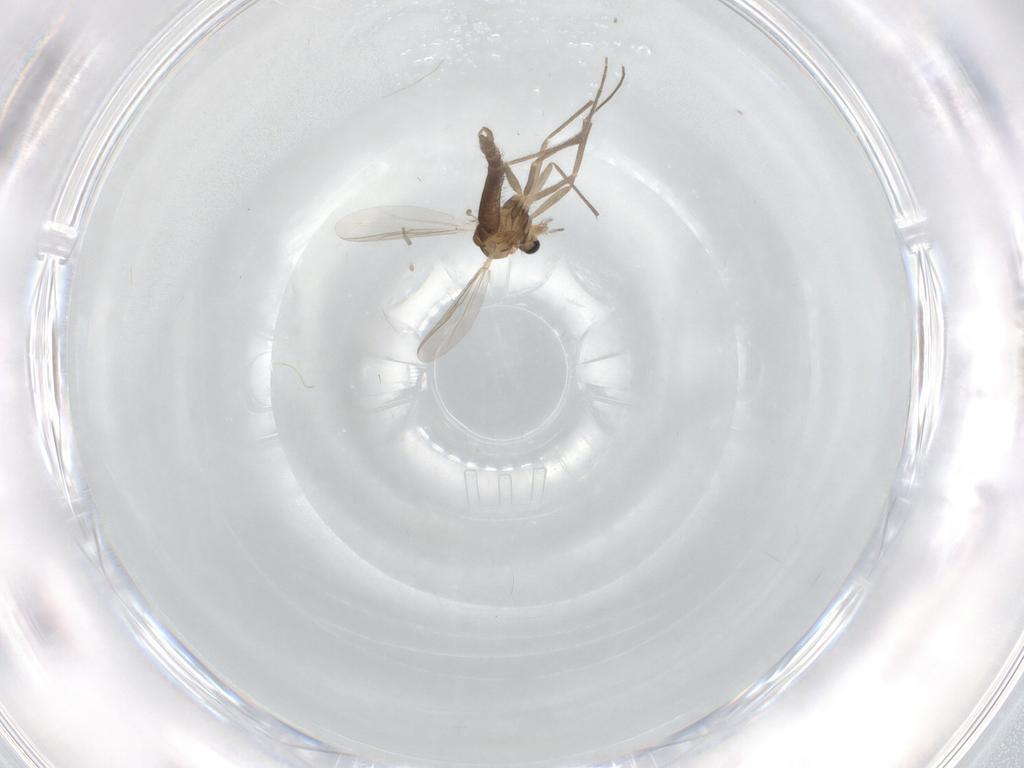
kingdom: Animalia
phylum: Arthropoda
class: Insecta
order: Diptera
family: Chironomidae
